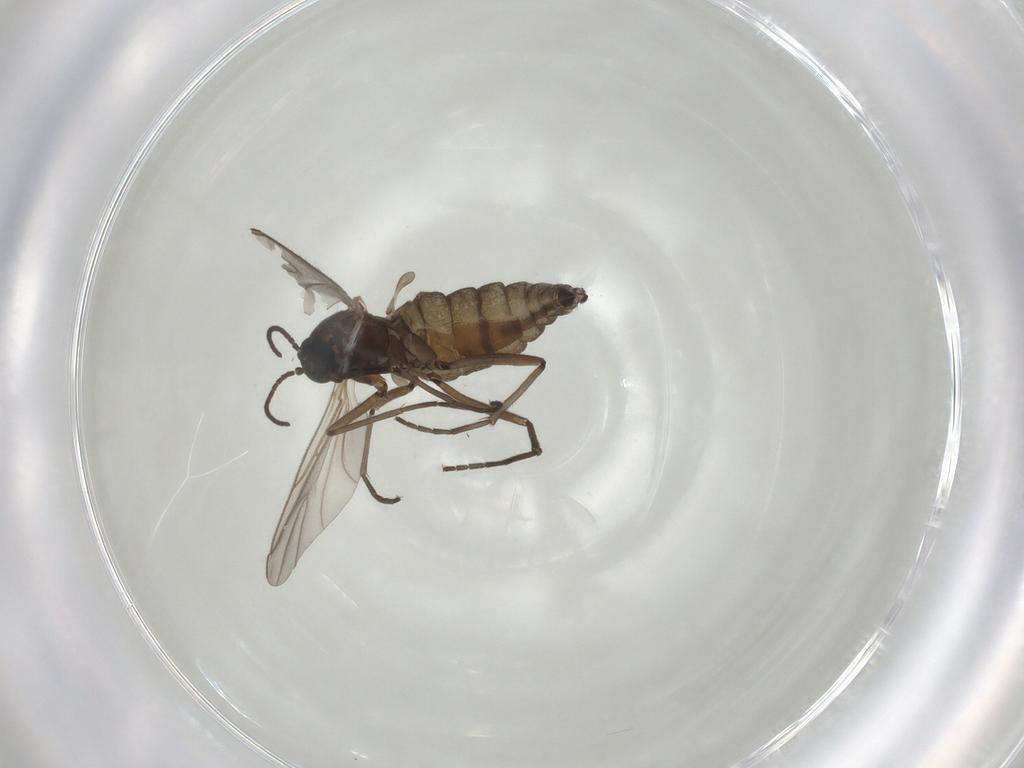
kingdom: Animalia
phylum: Arthropoda
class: Insecta
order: Diptera
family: Sciaridae
